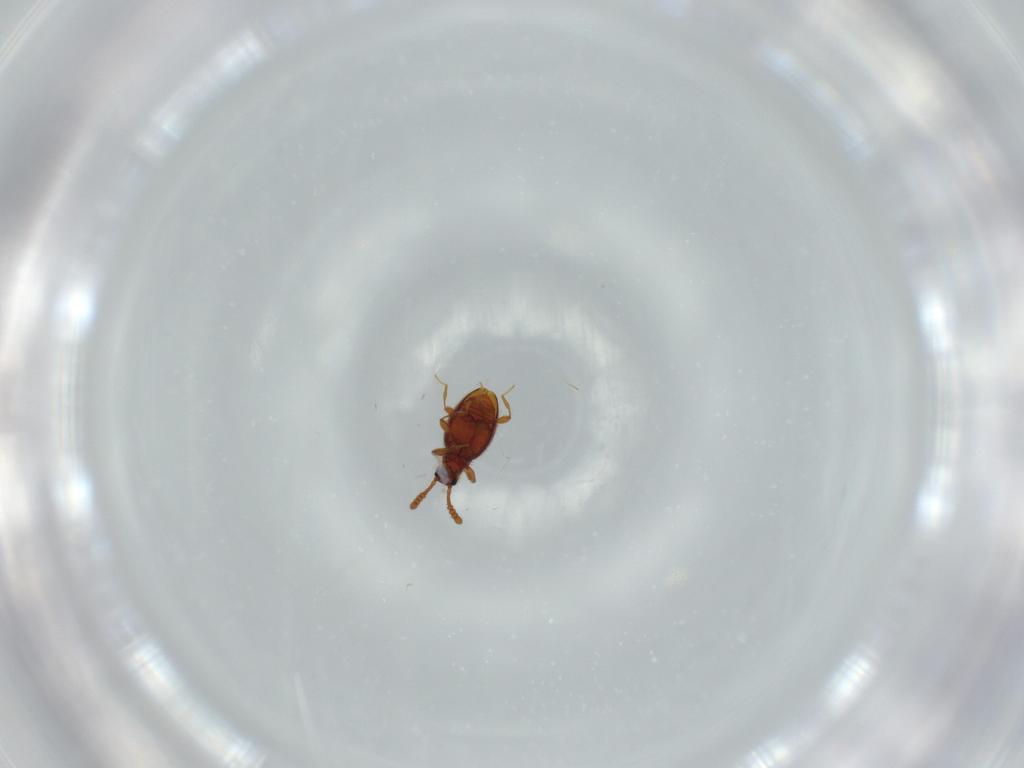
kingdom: Animalia
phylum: Arthropoda
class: Insecta
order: Coleoptera
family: Staphylinidae
